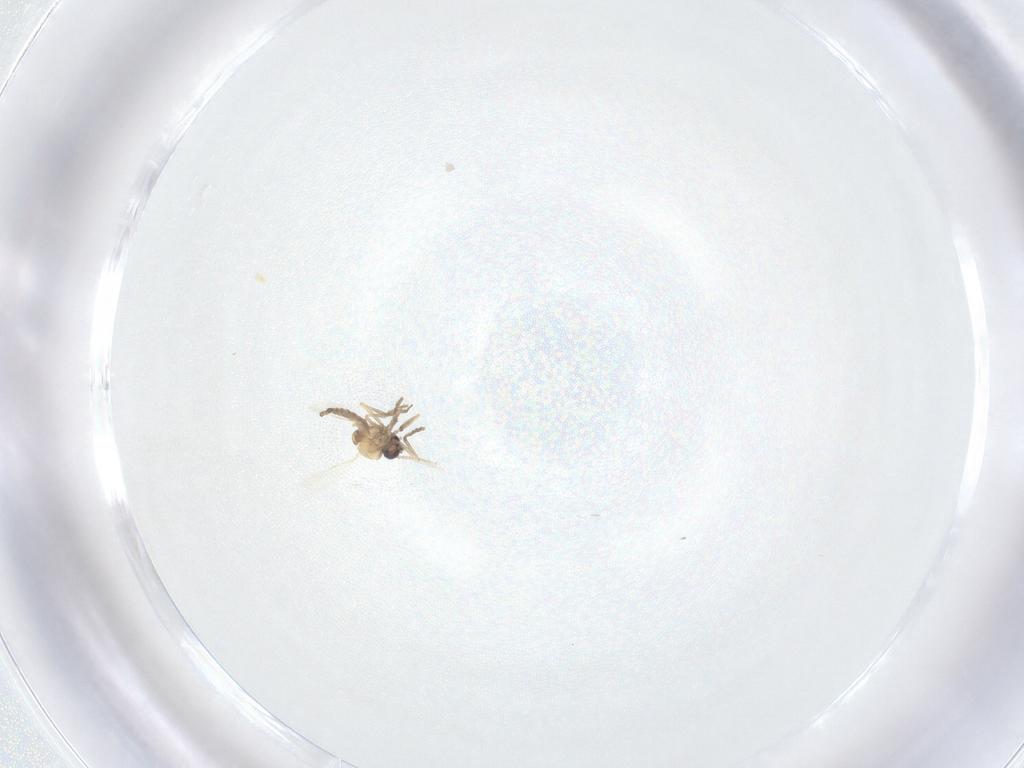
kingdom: Animalia
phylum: Arthropoda
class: Insecta
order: Diptera
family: Ceratopogonidae
